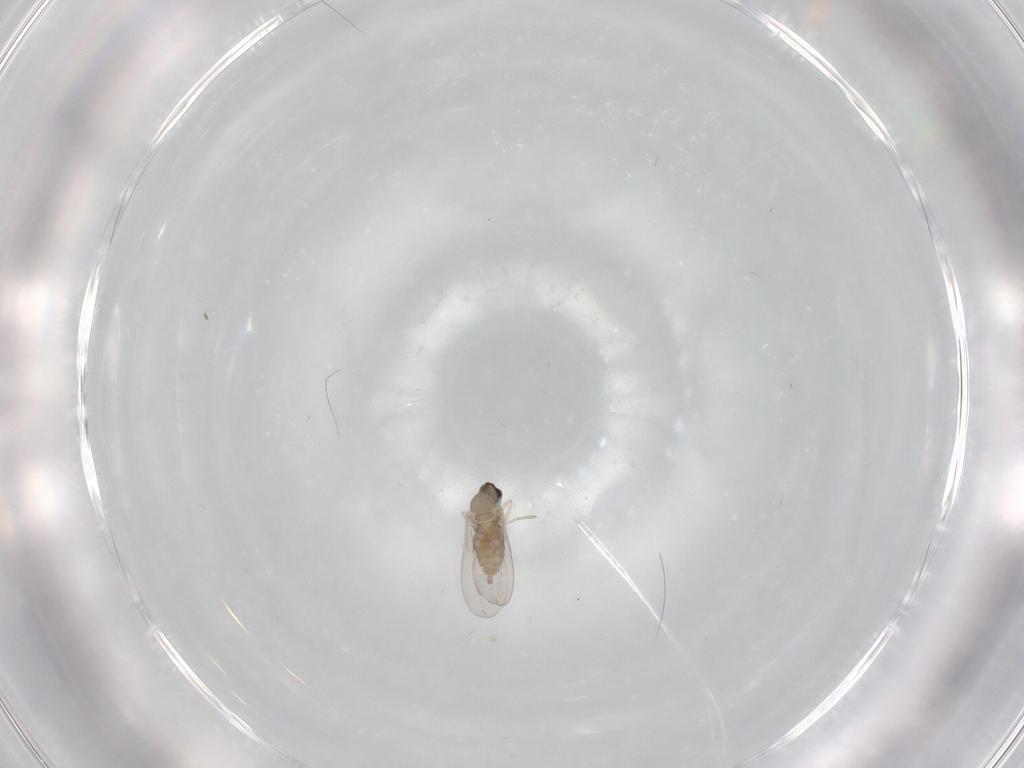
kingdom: Animalia
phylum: Arthropoda
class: Insecta
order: Diptera
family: Cecidomyiidae
